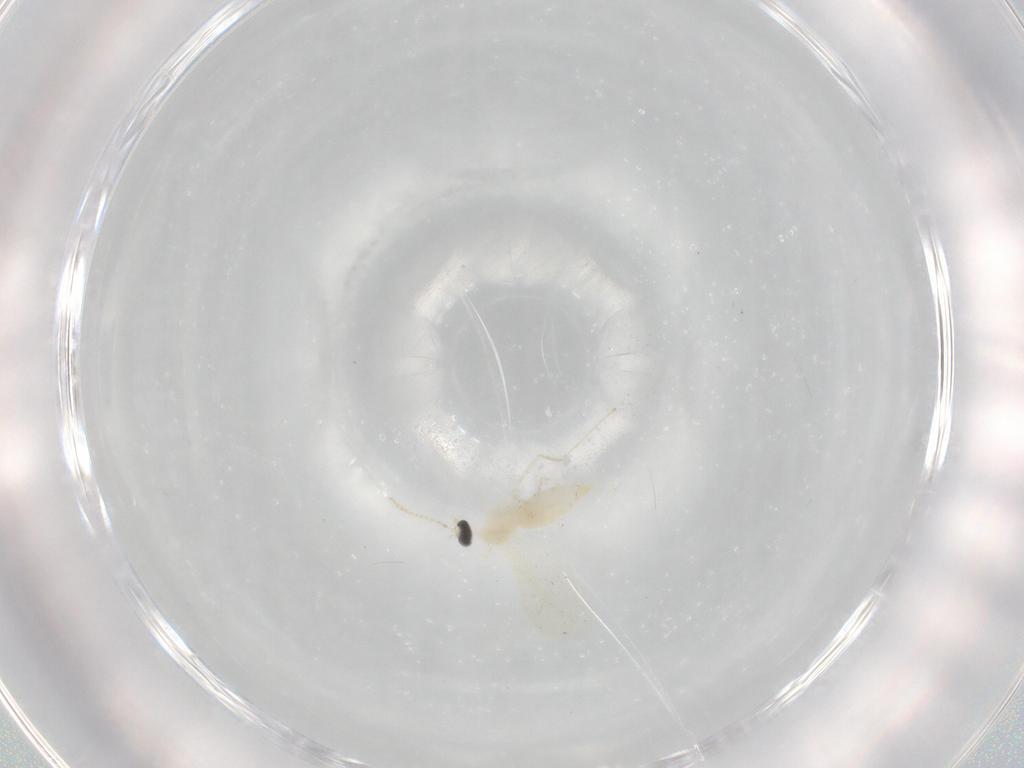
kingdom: Animalia
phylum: Arthropoda
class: Insecta
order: Diptera
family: Cecidomyiidae
